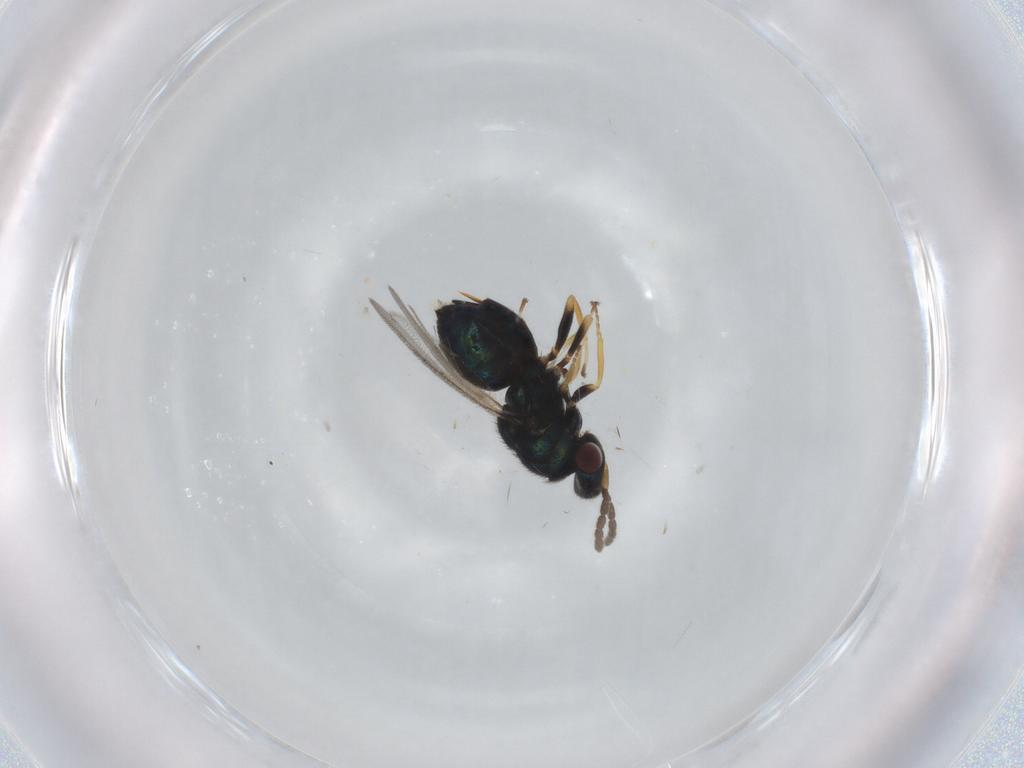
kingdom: Animalia
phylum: Arthropoda
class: Insecta
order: Hymenoptera
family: Eulophidae
